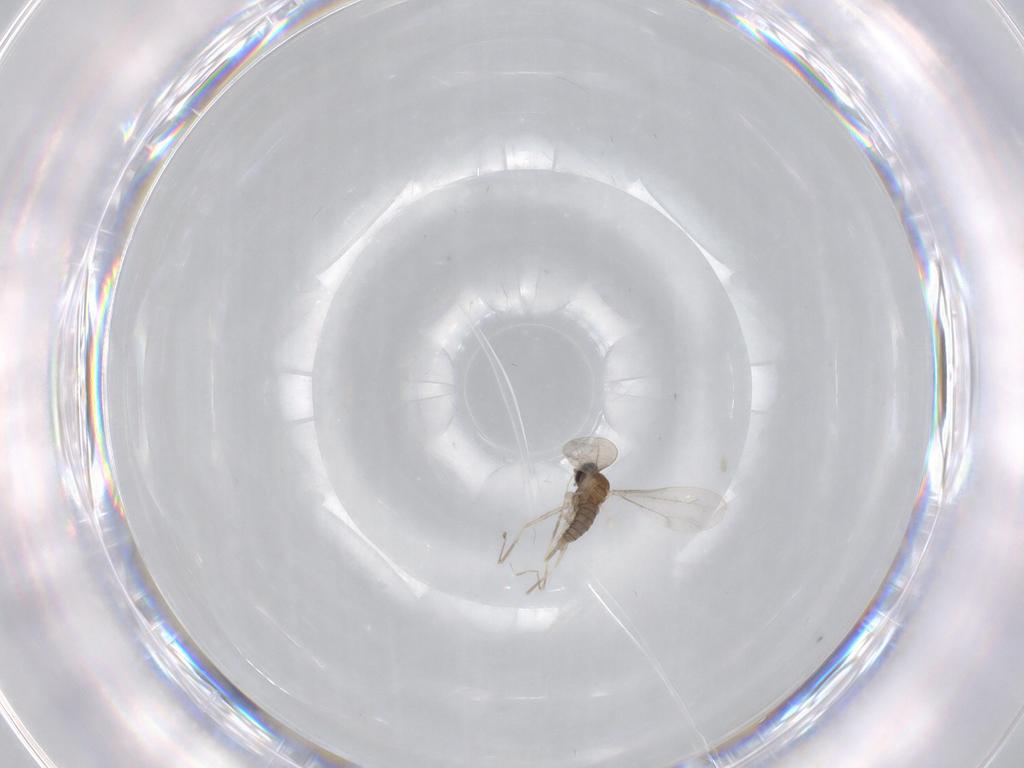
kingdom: Animalia
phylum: Arthropoda
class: Insecta
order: Diptera
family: Cecidomyiidae
